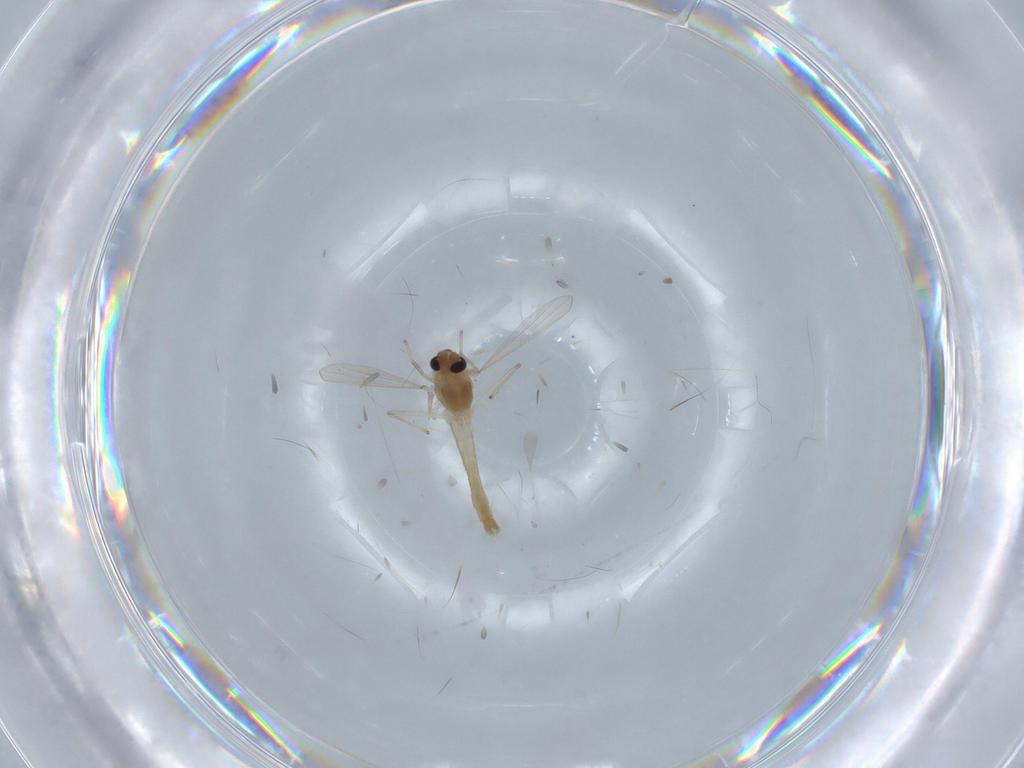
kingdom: Animalia
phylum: Arthropoda
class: Insecta
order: Diptera
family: Chironomidae
